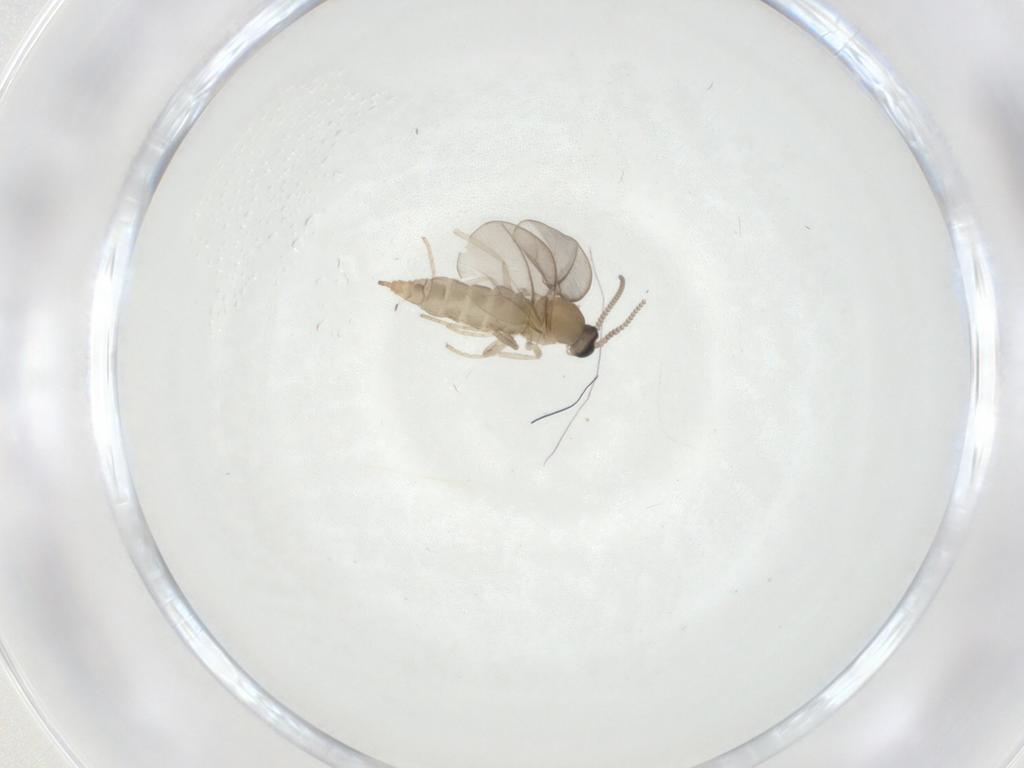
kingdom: Animalia
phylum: Arthropoda
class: Insecta
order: Diptera
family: Cecidomyiidae
